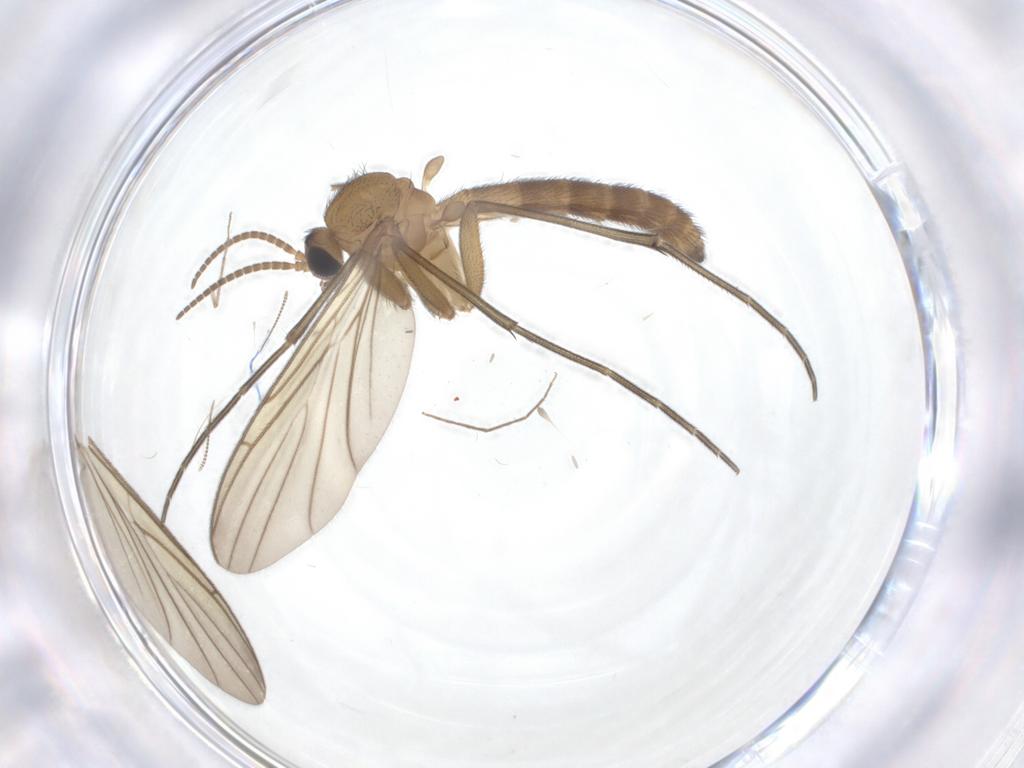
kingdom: Animalia
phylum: Arthropoda
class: Insecta
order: Diptera
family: Keroplatidae
